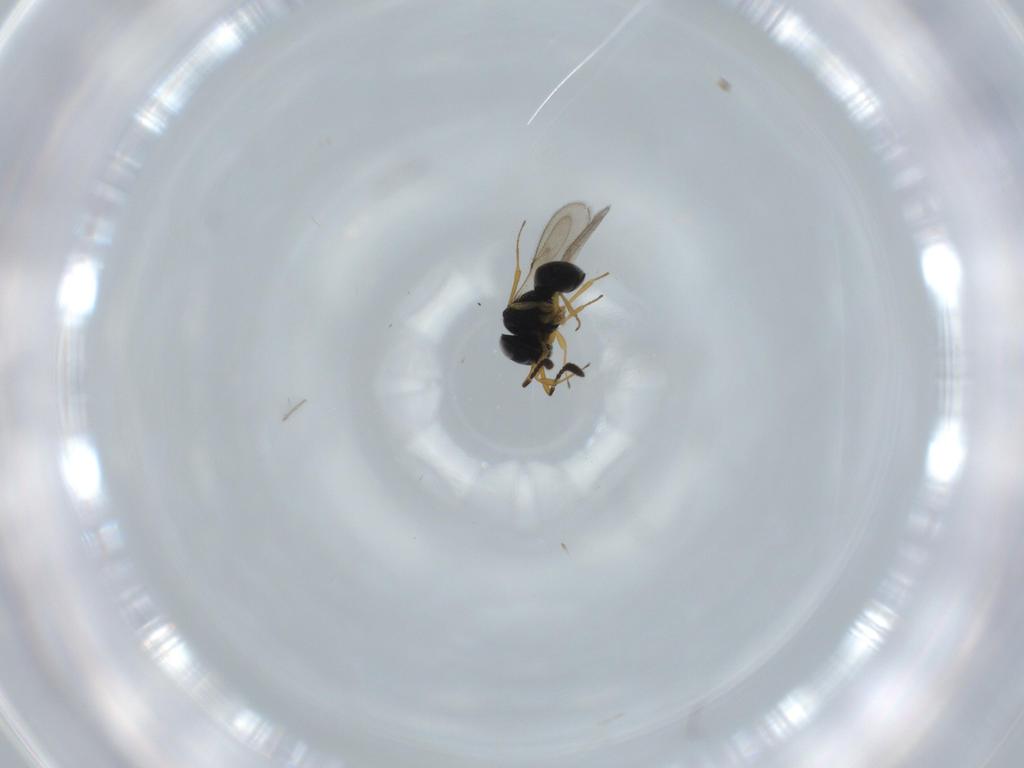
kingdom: Animalia
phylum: Arthropoda
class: Insecta
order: Hymenoptera
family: Scelionidae
